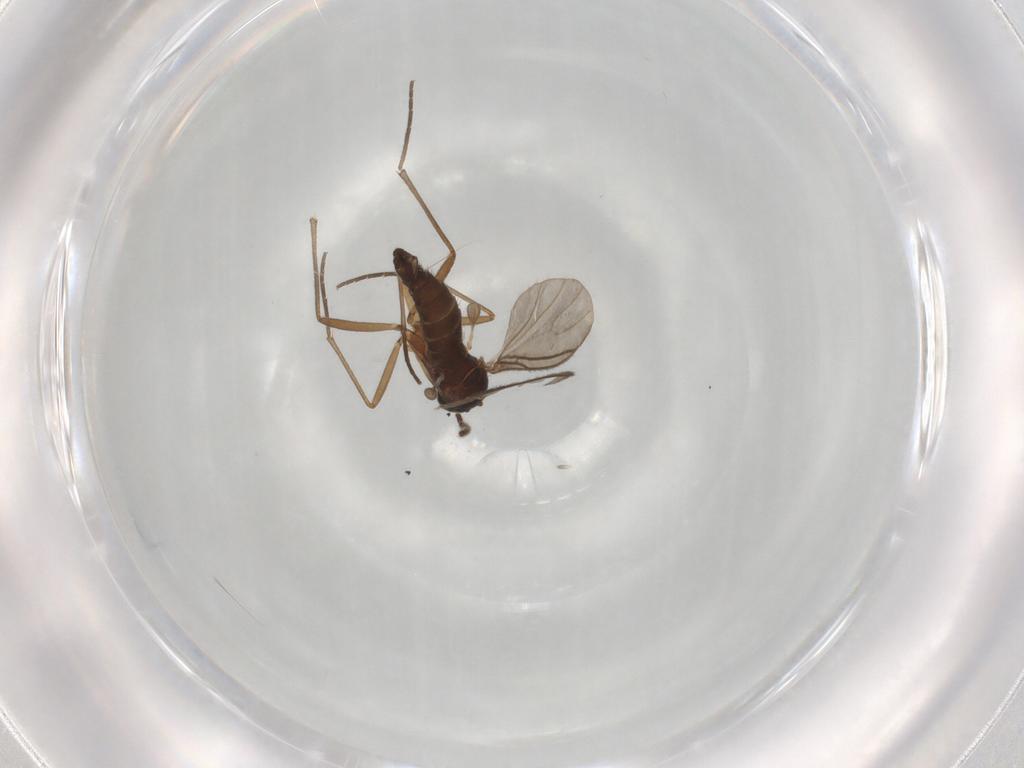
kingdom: Animalia
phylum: Arthropoda
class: Insecta
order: Diptera
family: Sciaridae
